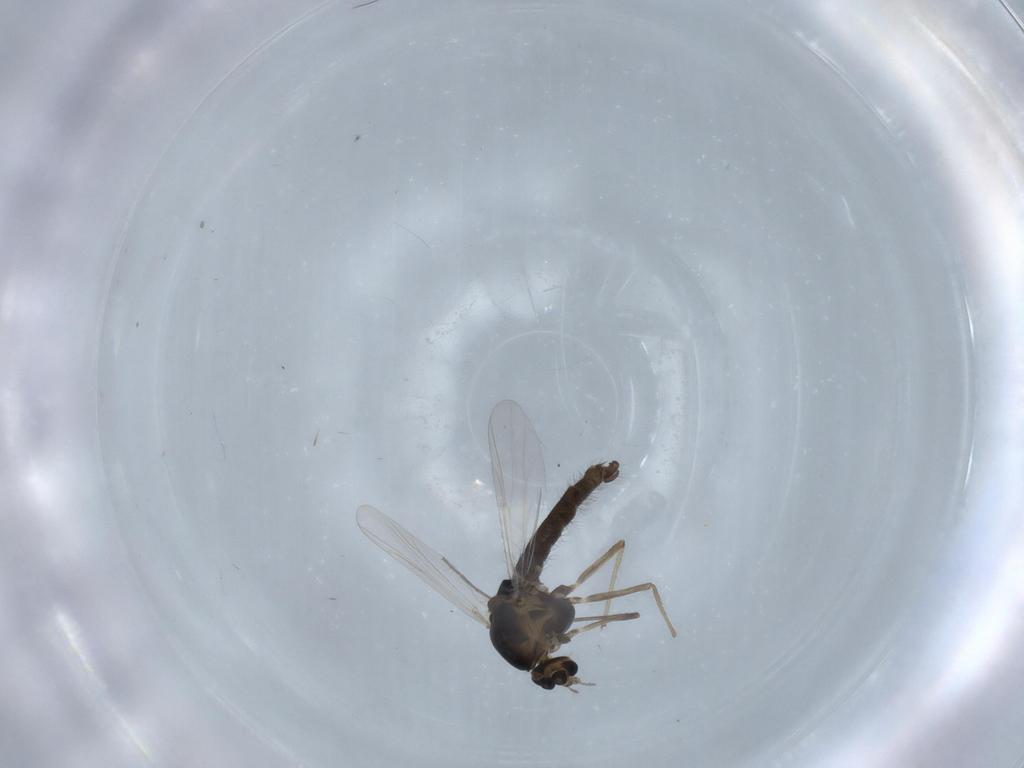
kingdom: Animalia
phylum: Arthropoda
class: Insecta
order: Diptera
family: Chironomidae
